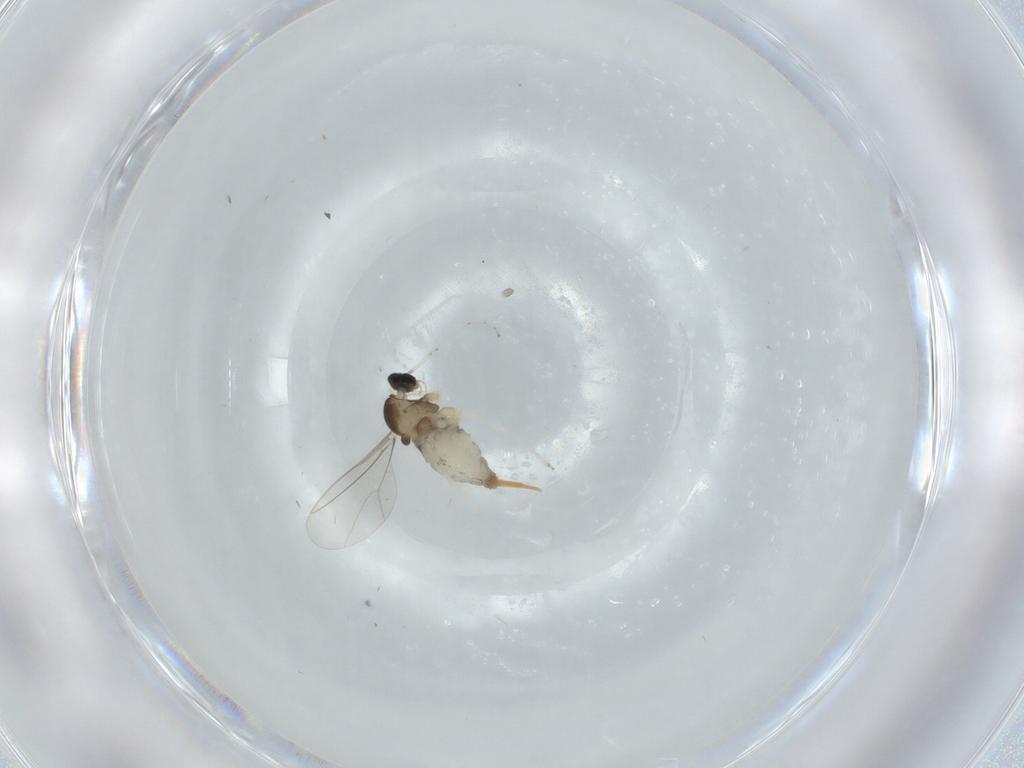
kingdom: Animalia
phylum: Arthropoda
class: Insecta
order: Diptera
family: Cecidomyiidae
